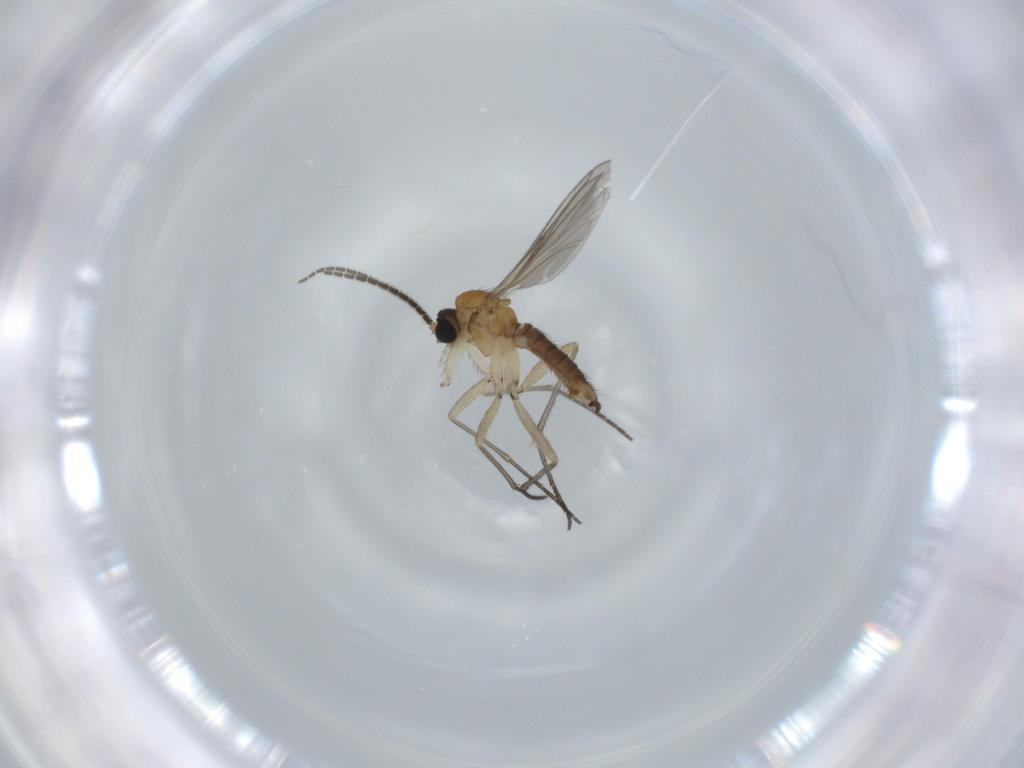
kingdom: Animalia
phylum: Arthropoda
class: Insecta
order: Diptera
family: Sciaridae
